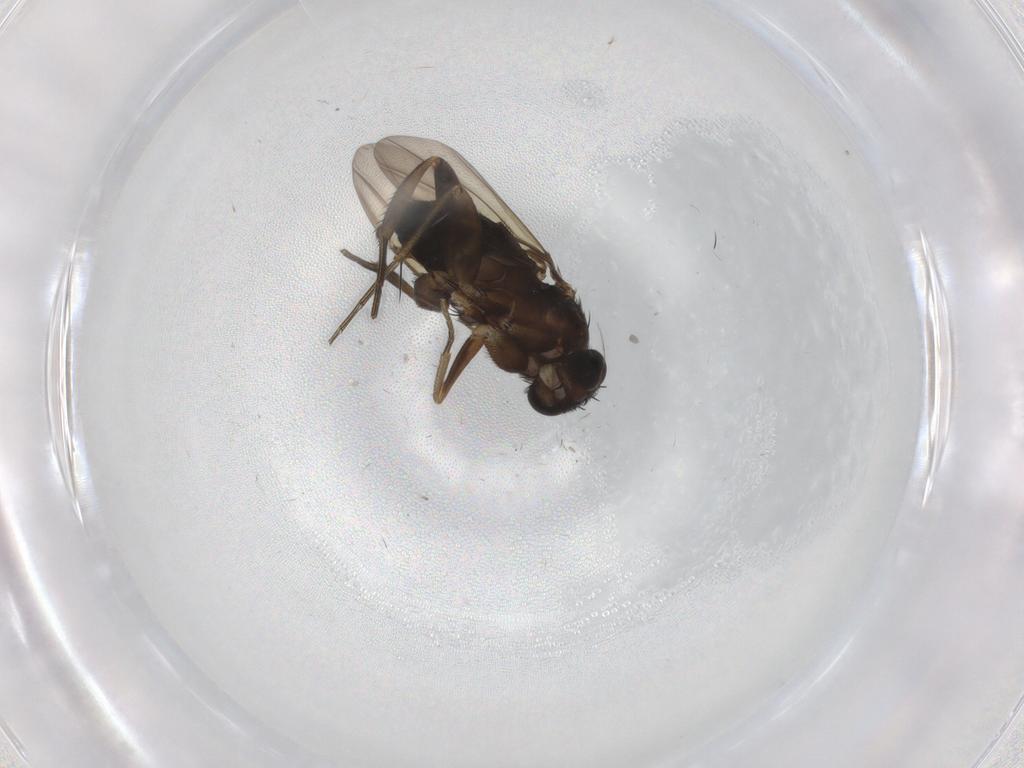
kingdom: Animalia
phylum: Arthropoda
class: Insecta
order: Diptera
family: Phoridae
